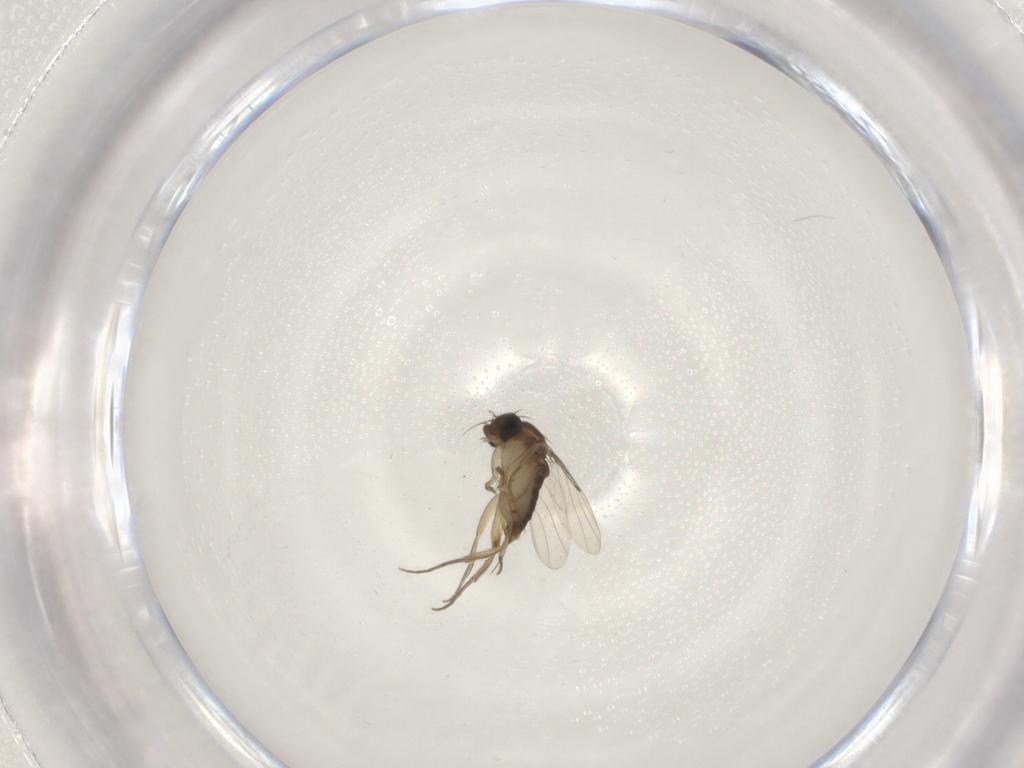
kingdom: Animalia
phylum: Arthropoda
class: Insecta
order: Diptera
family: Phoridae
